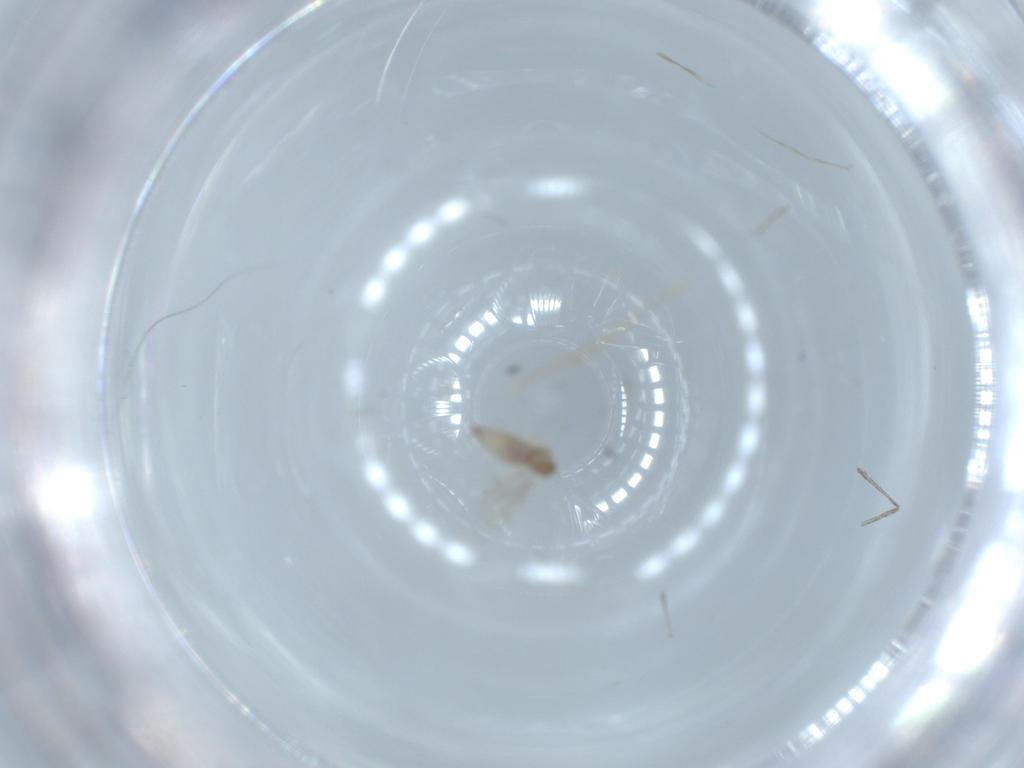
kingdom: Animalia
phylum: Arthropoda
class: Insecta
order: Diptera
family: Cecidomyiidae
